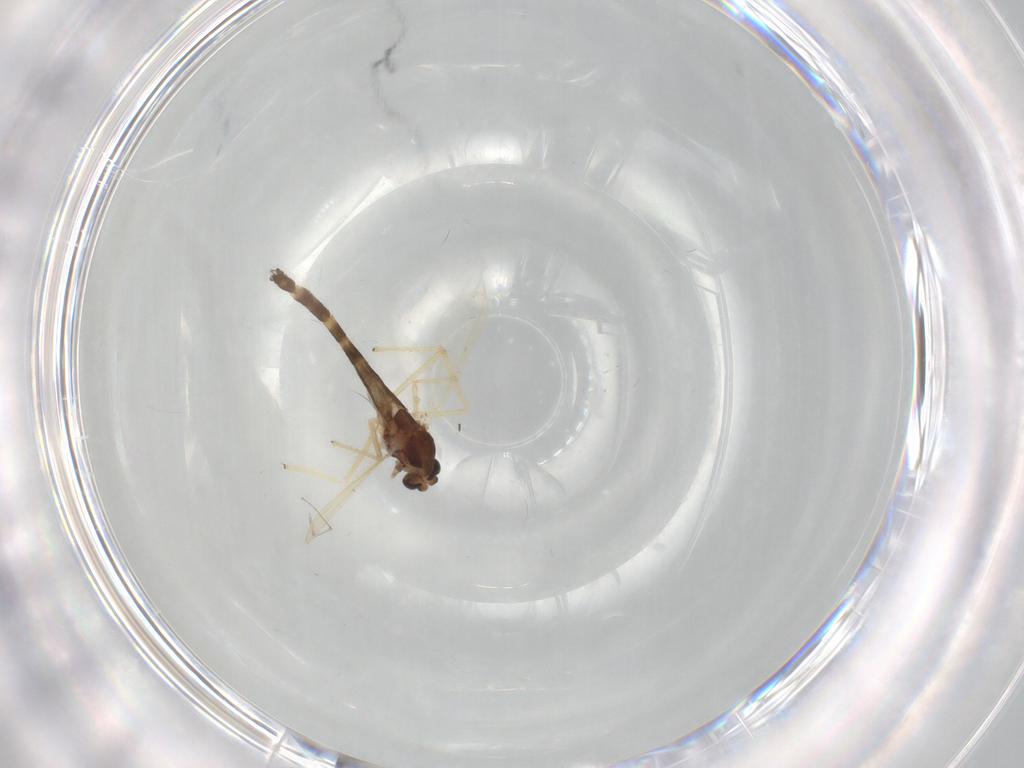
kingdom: Animalia
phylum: Arthropoda
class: Insecta
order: Diptera
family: Chironomidae
